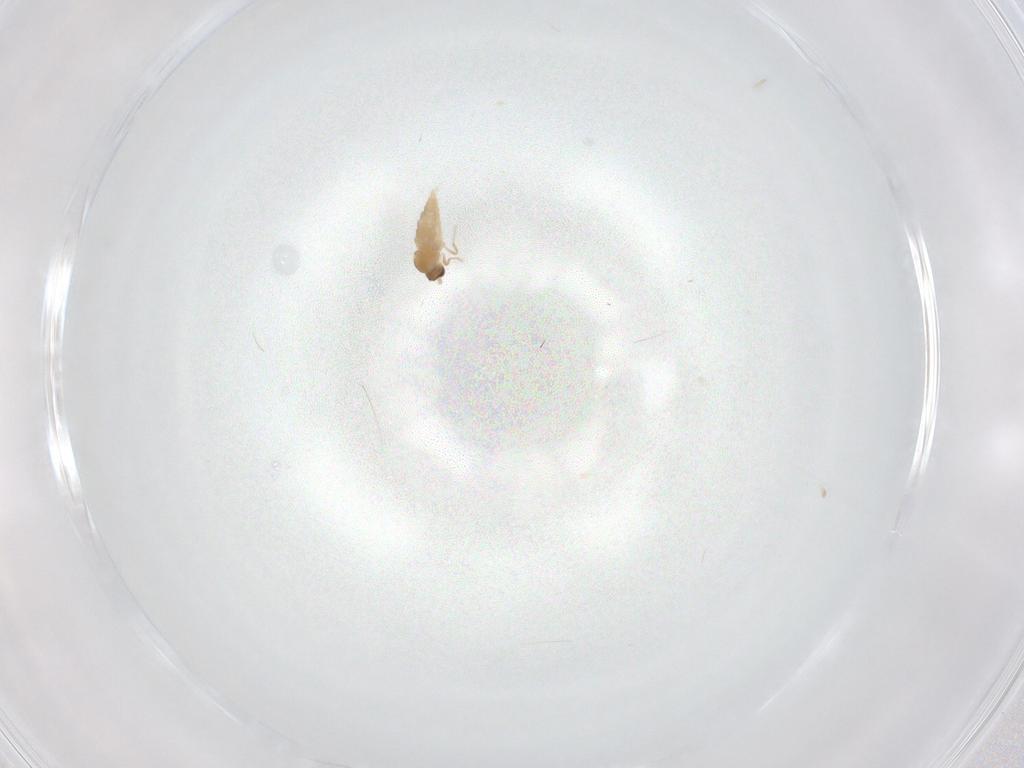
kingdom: Animalia
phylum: Arthropoda
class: Insecta
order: Diptera
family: Cecidomyiidae
